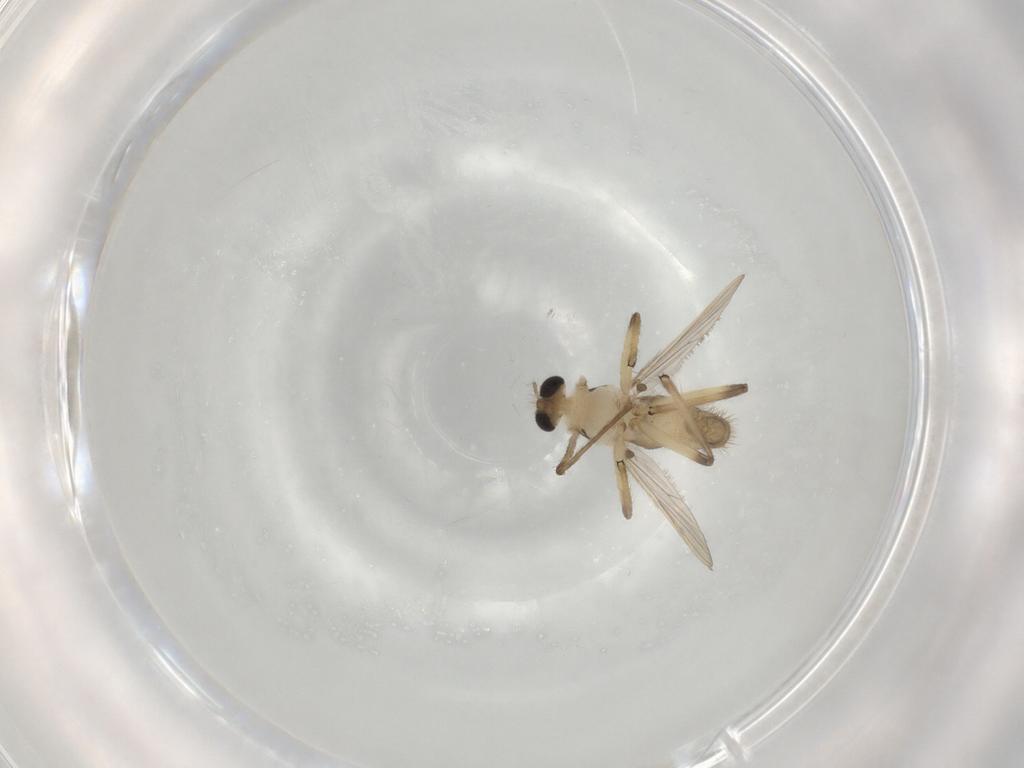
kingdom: Animalia
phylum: Arthropoda
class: Insecta
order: Diptera
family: Chironomidae
